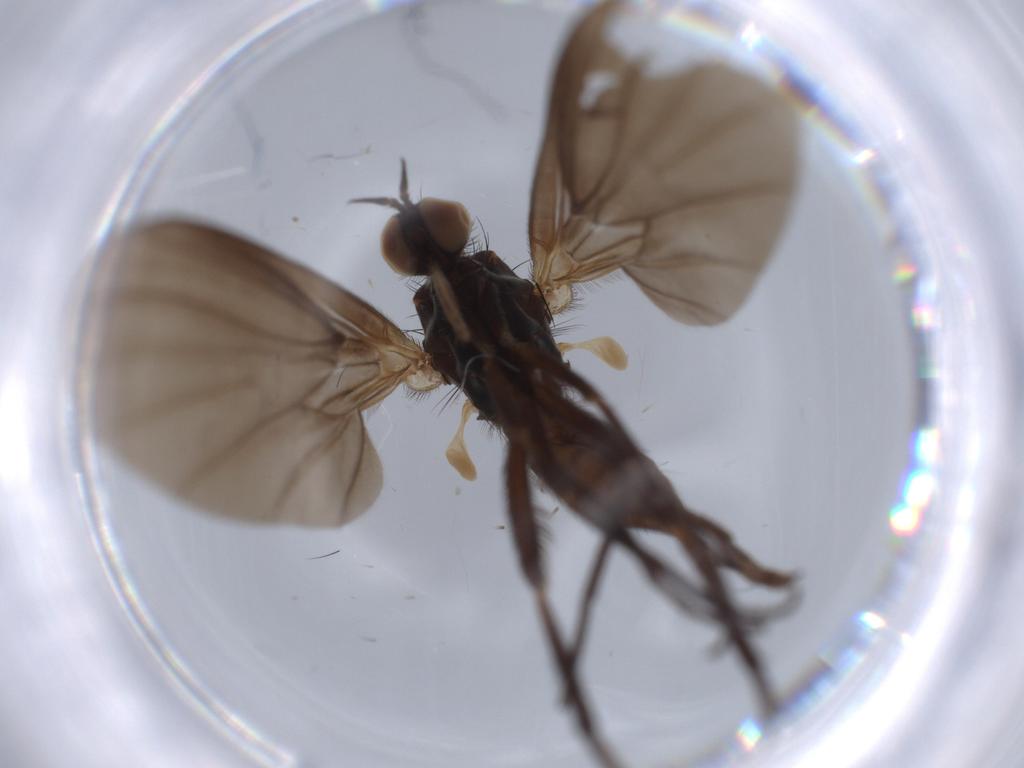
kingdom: Animalia
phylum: Arthropoda
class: Insecta
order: Diptera
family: Empididae
